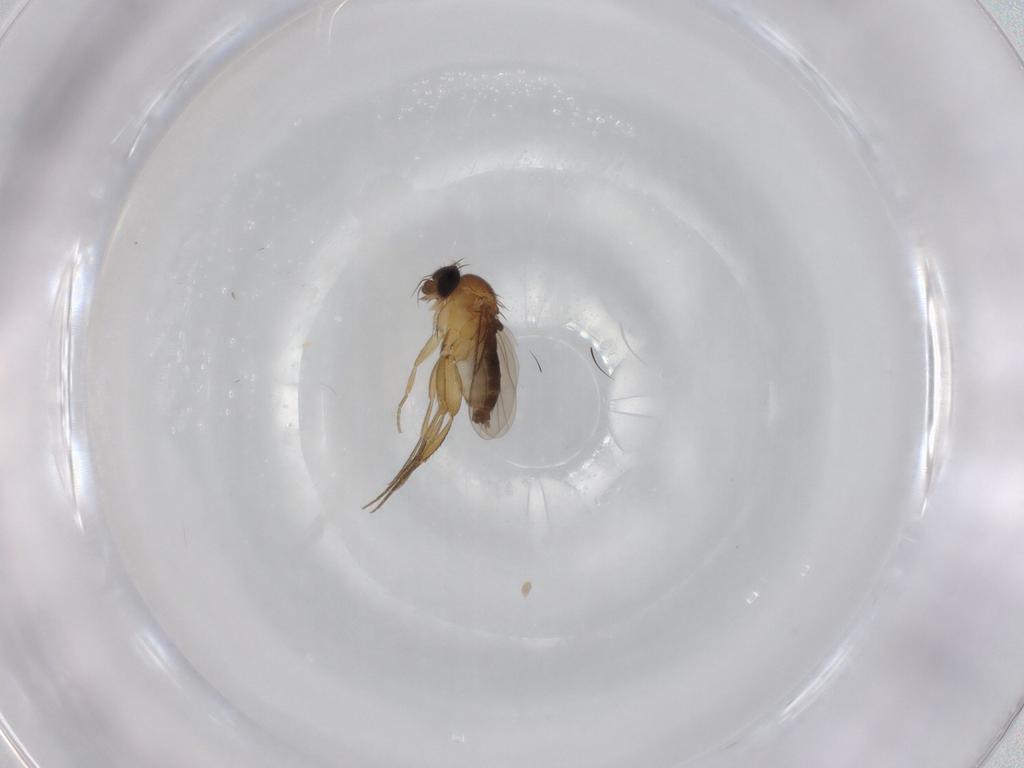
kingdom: Animalia
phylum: Arthropoda
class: Insecta
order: Diptera
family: Phoridae
